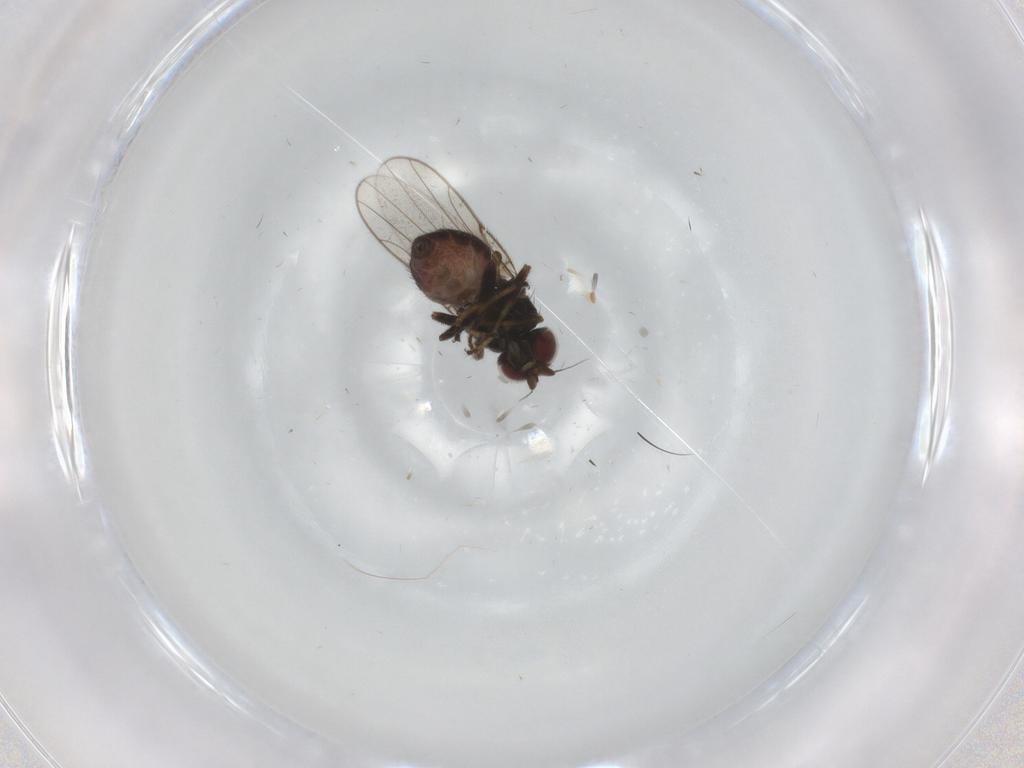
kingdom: Animalia
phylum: Arthropoda
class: Insecta
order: Diptera
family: Chloropidae
